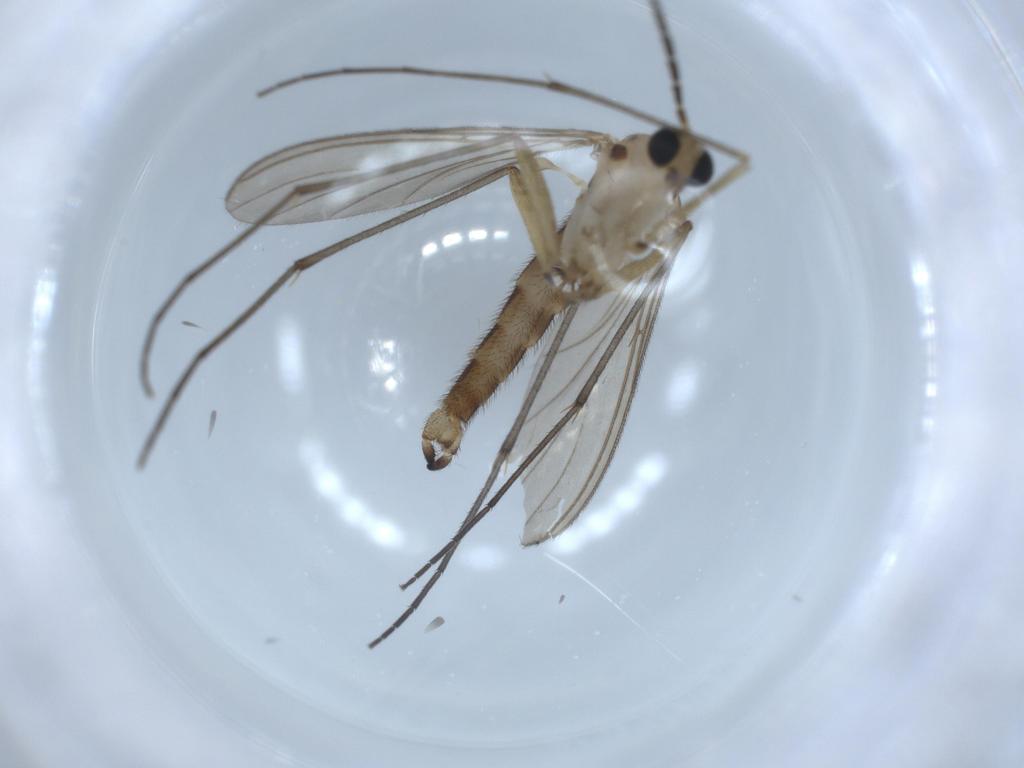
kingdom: Animalia
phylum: Arthropoda
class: Insecta
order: Diptera
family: Sciaridae
